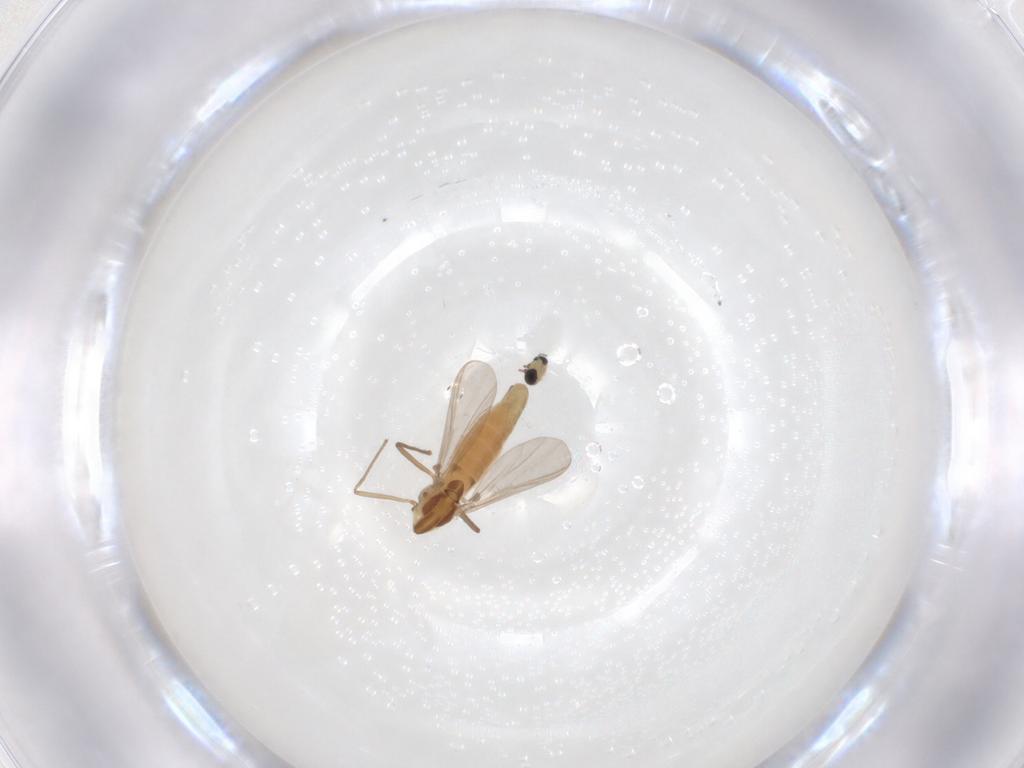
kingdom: Animalia
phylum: Arthropoda
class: Insecta
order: Diptera
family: Chironomidae
